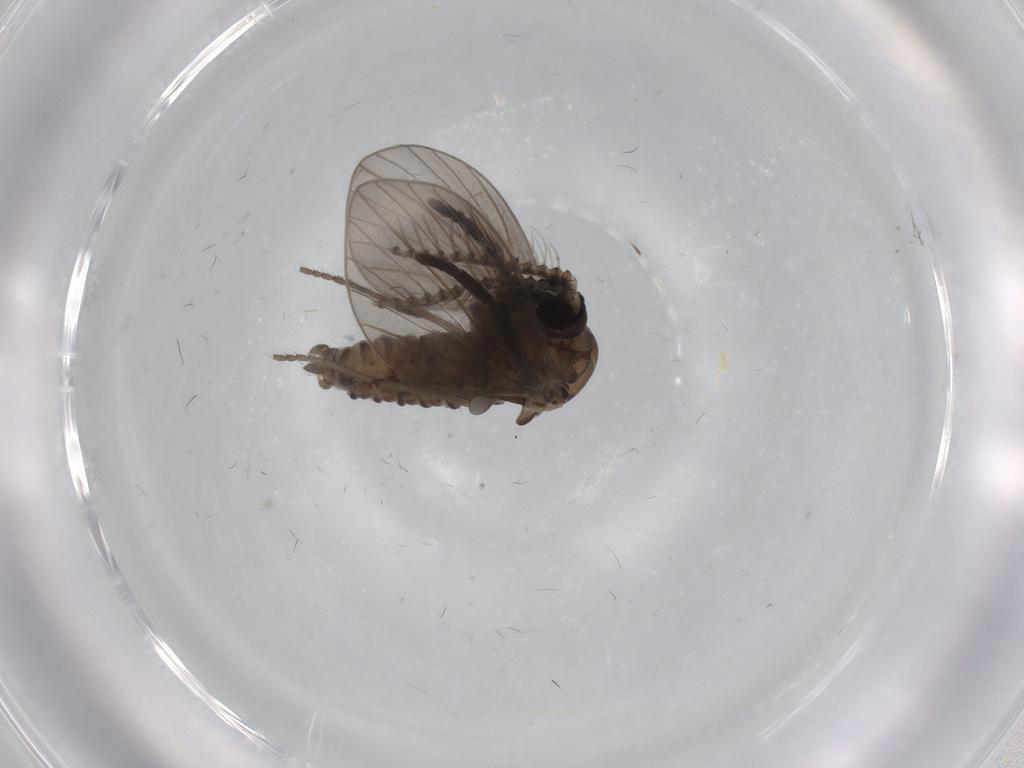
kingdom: Animalia
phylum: Arthropoda
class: Insecta
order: Diptera
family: Psychodidae
